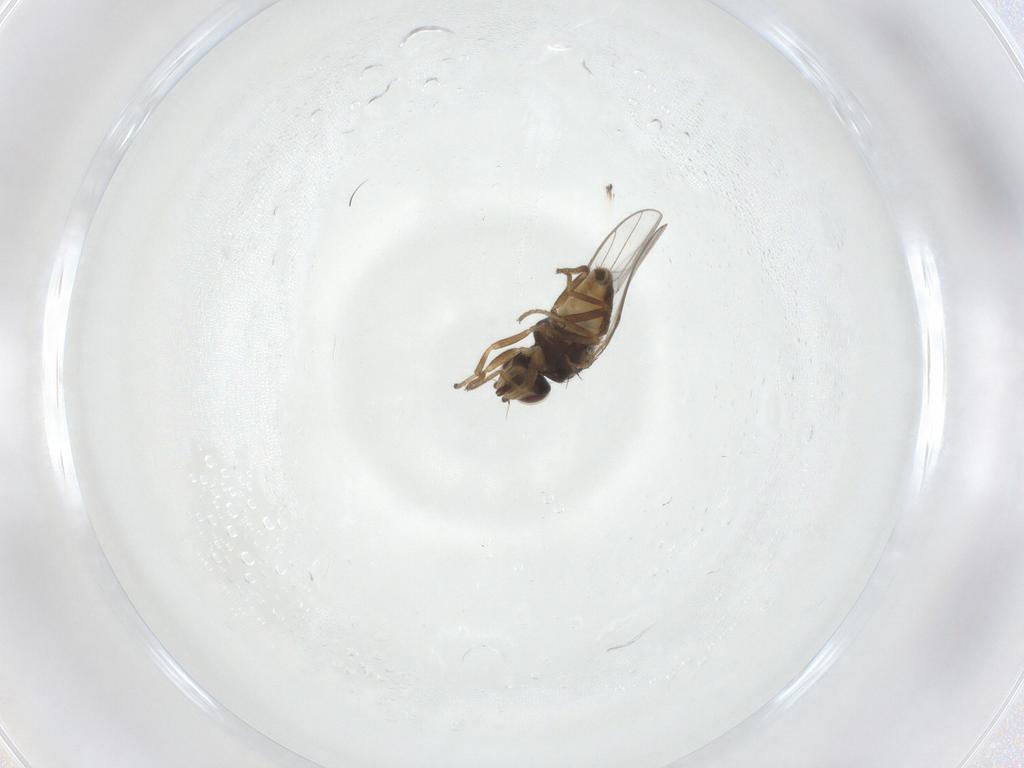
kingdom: Animalia
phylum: Arthropoda
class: Insecta
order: Diptera
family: Chloropidae
